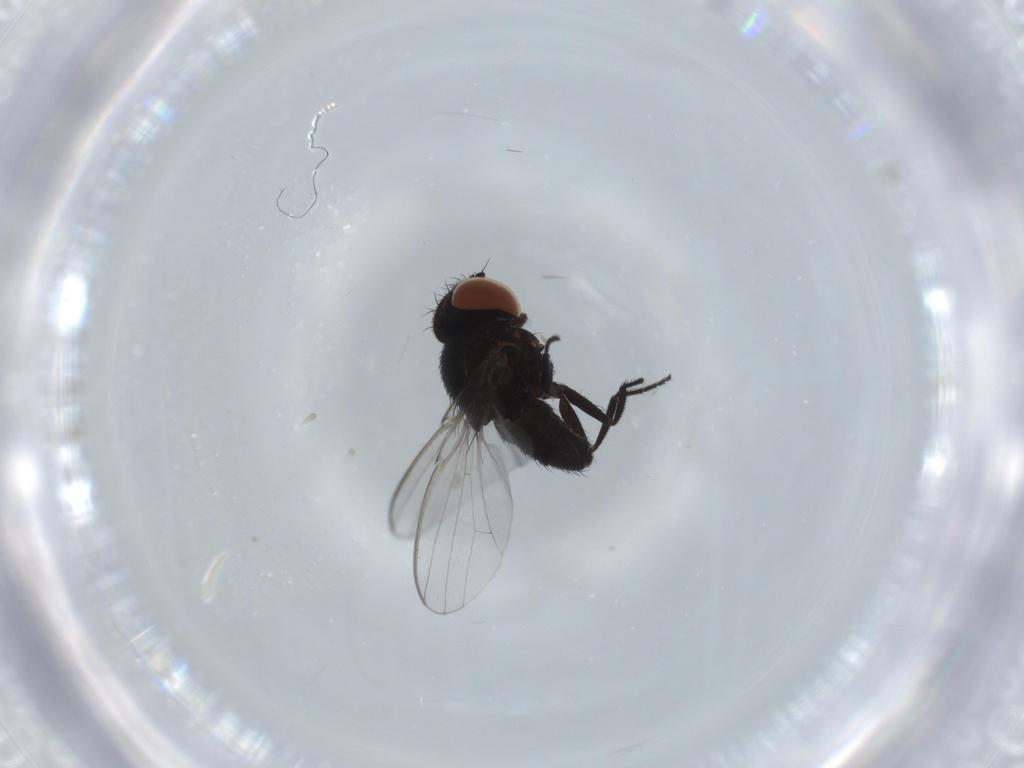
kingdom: Animalia
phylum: Arthropoda
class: Insecta
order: Diptera
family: Milichiidae
